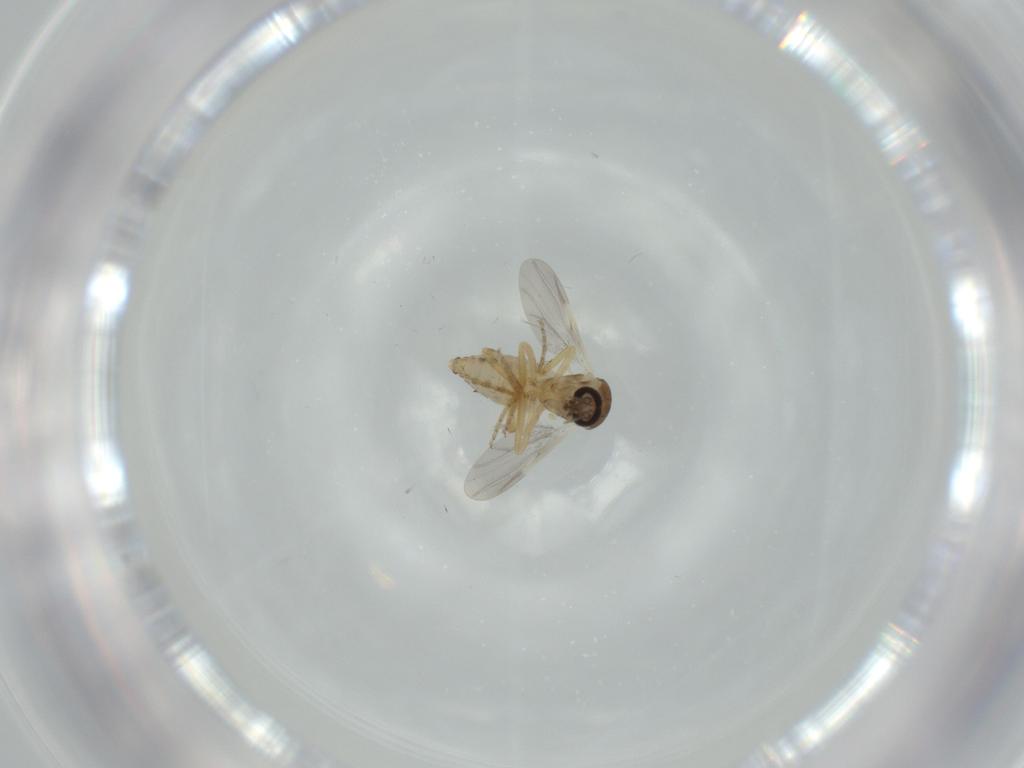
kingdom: Animalia
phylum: Arthropoda
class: Insecta
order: Diptera
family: Ceratopogonidae
